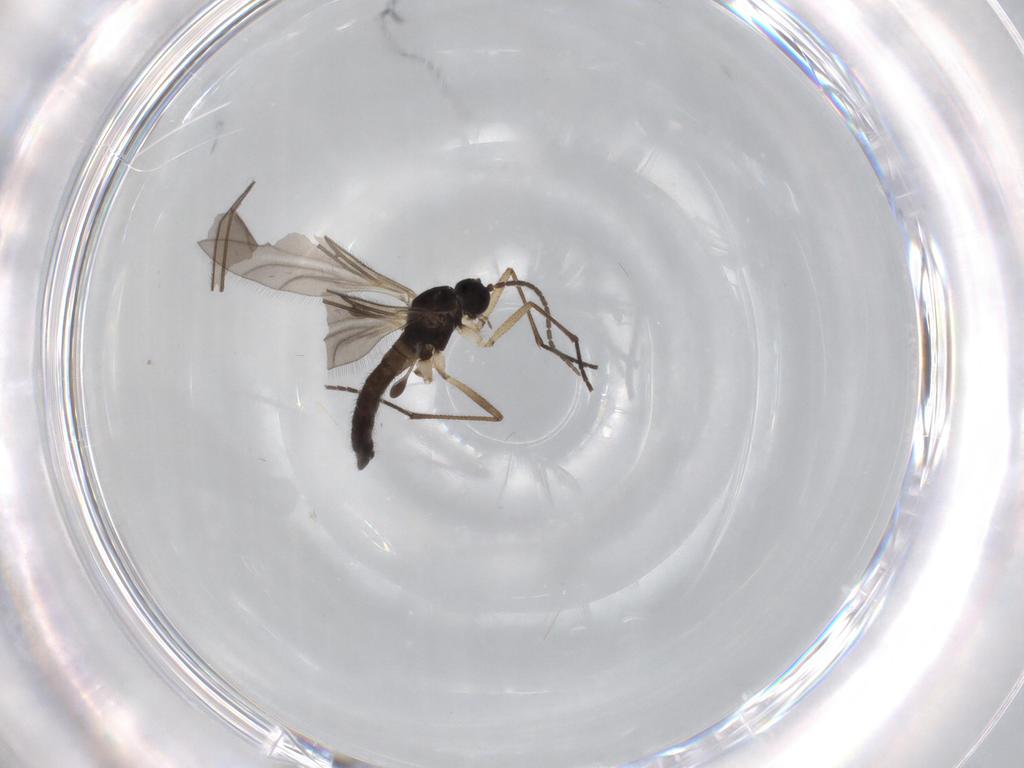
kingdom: Animalia
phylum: Arthropoda
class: Insecta
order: Diptera
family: Sciaridae
